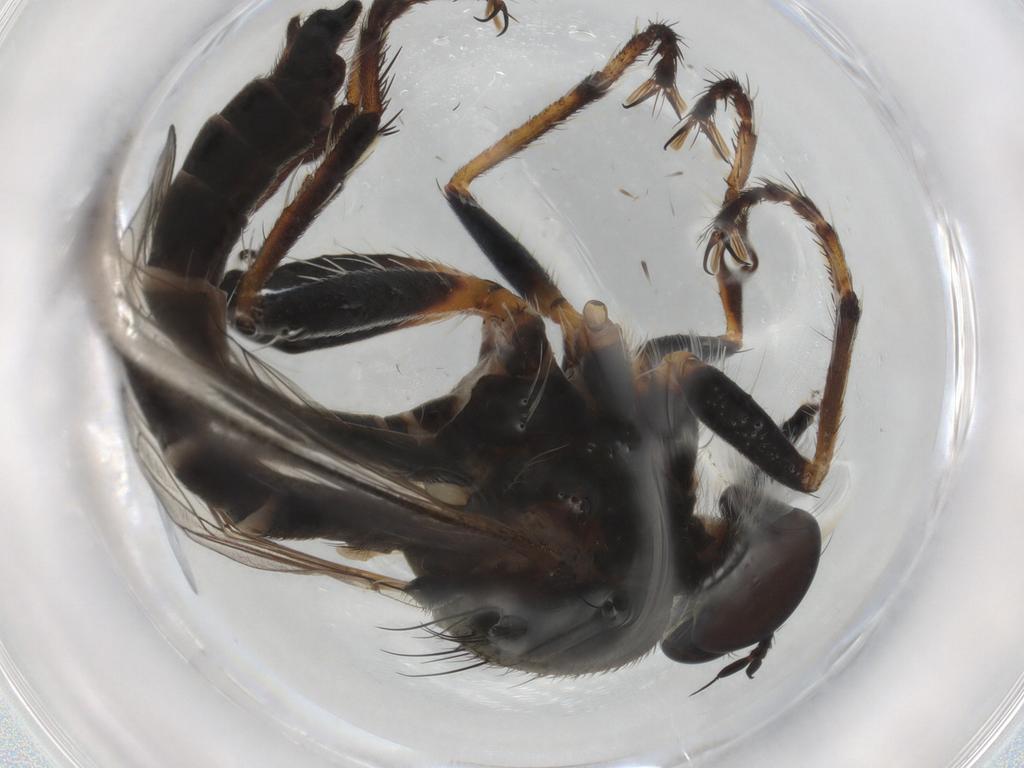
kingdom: Animalia
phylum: Arthropoda
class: Insecta
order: Diptera
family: Asilidae
